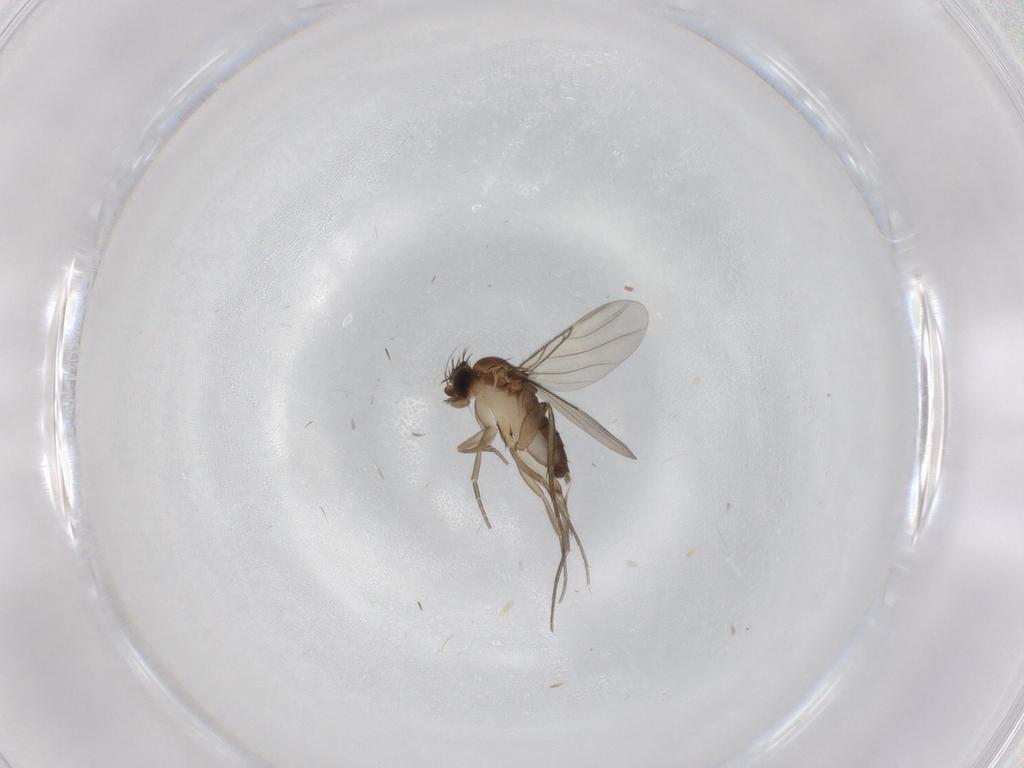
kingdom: Animalia
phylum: Arthropoda
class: Insecta
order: Diptera
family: Phoridae
